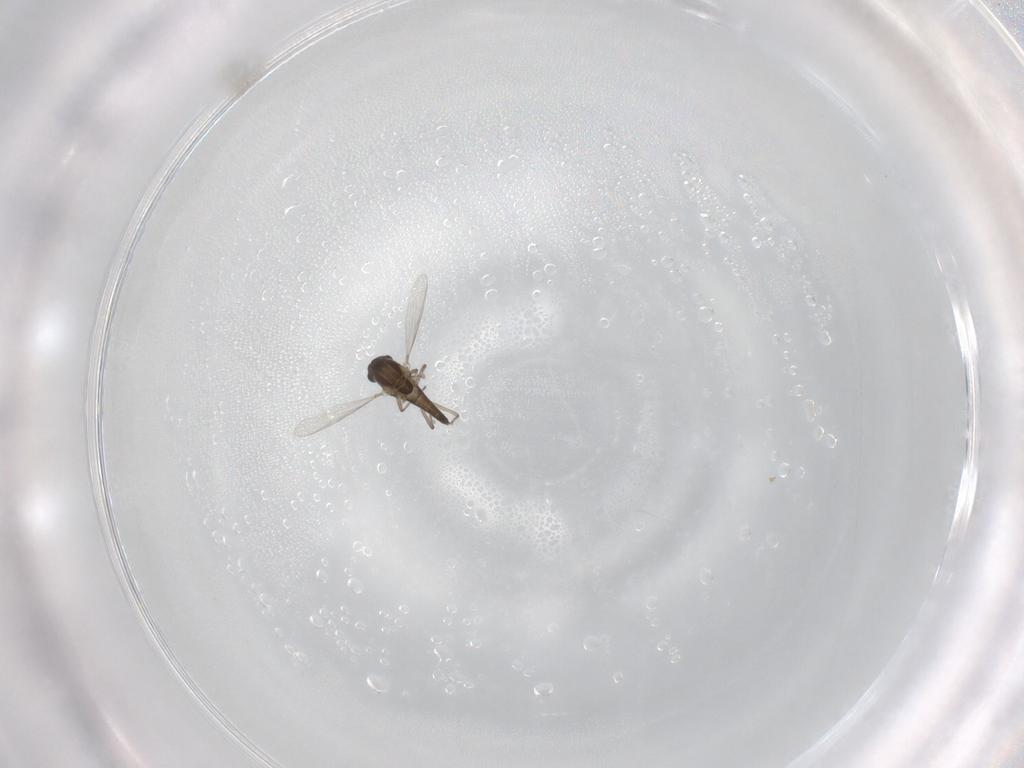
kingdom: Animalia
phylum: Arthropoda
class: Insecta
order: Diptera
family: Chironomidae
